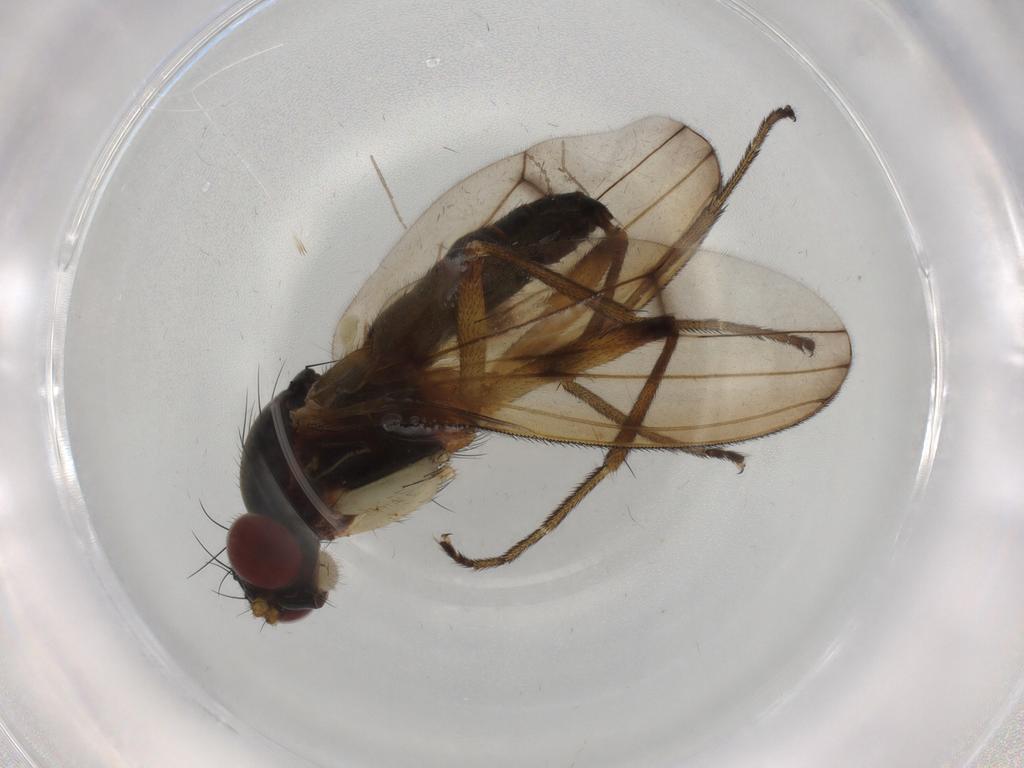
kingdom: Animalia
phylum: Arthropoda
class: Insecta
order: Diptera
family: Sciomyzidae
